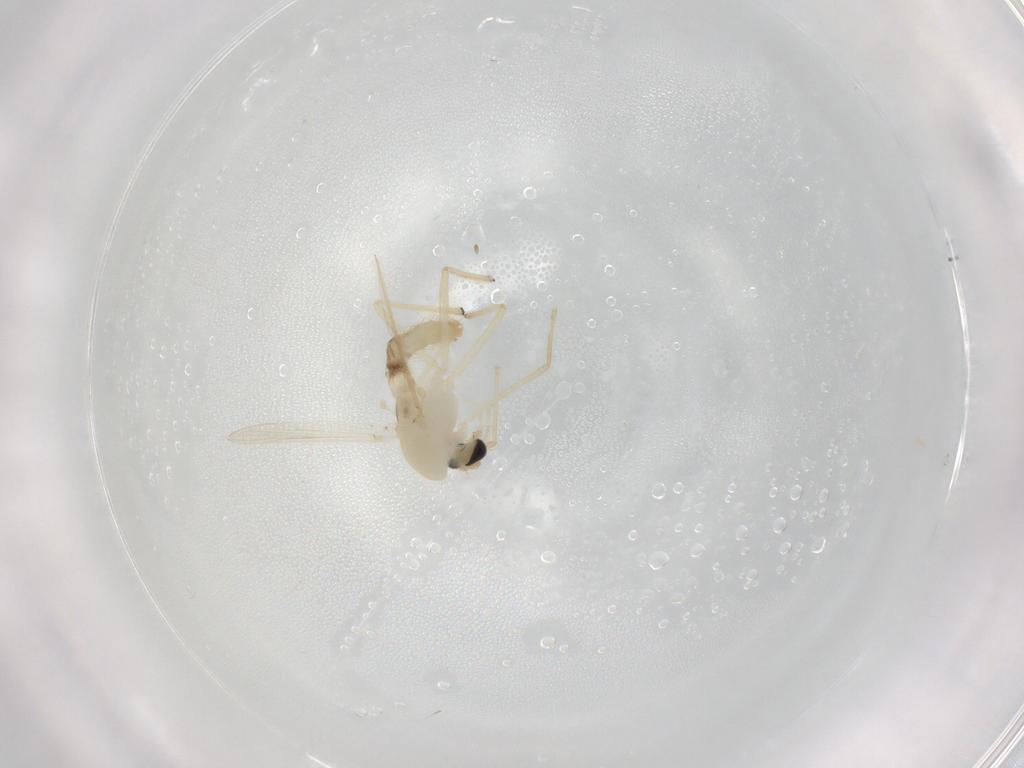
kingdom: Animalia
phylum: Arthropoda
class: Insecta
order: Diptera
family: Chironomidae
